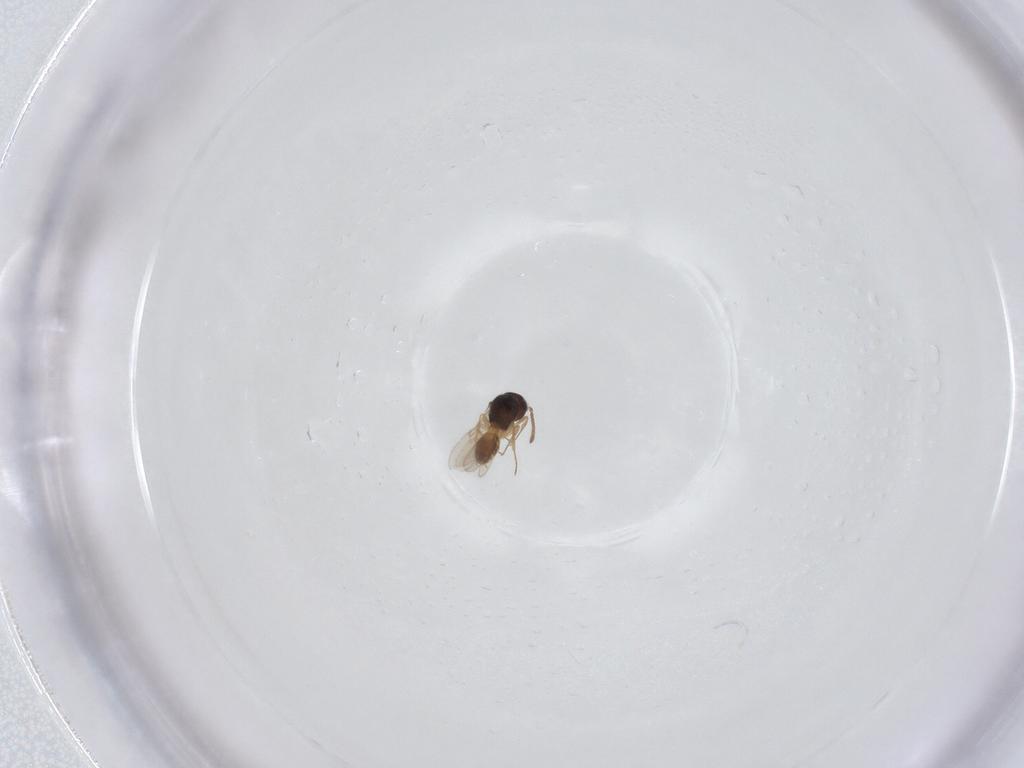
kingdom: Animalia
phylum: Arthropoda
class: Insecta
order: Hymenoptera
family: Scelionidae
